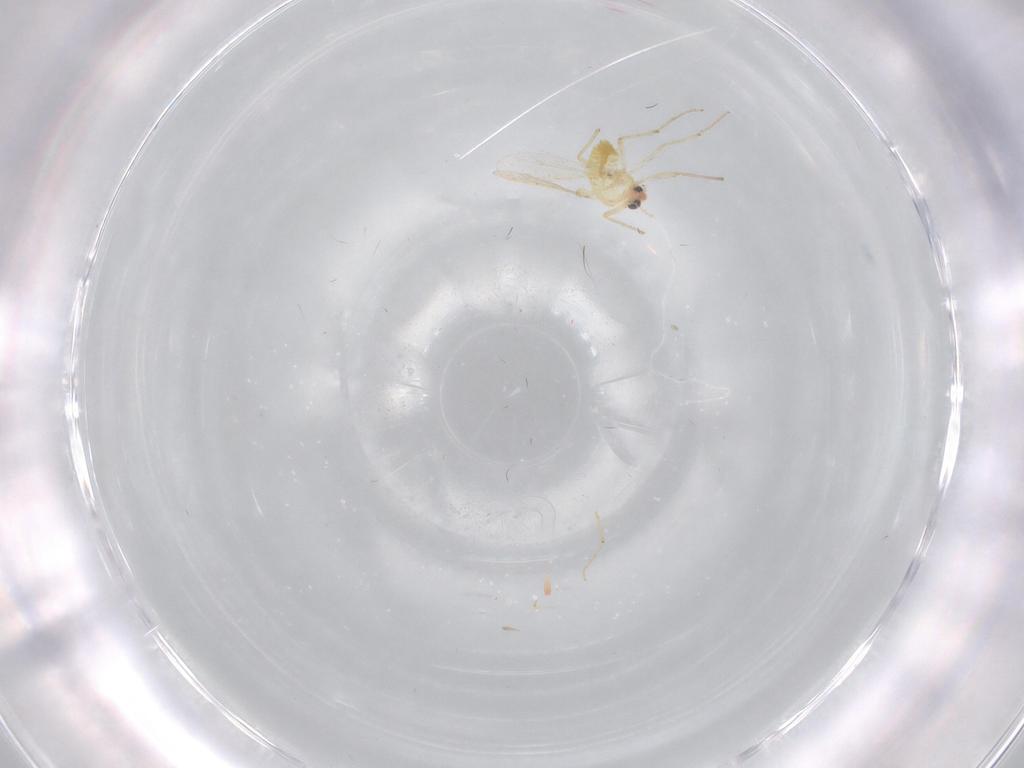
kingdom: Animalia
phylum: Arthropoda
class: Insecta
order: Diptera
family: Chironomidae
